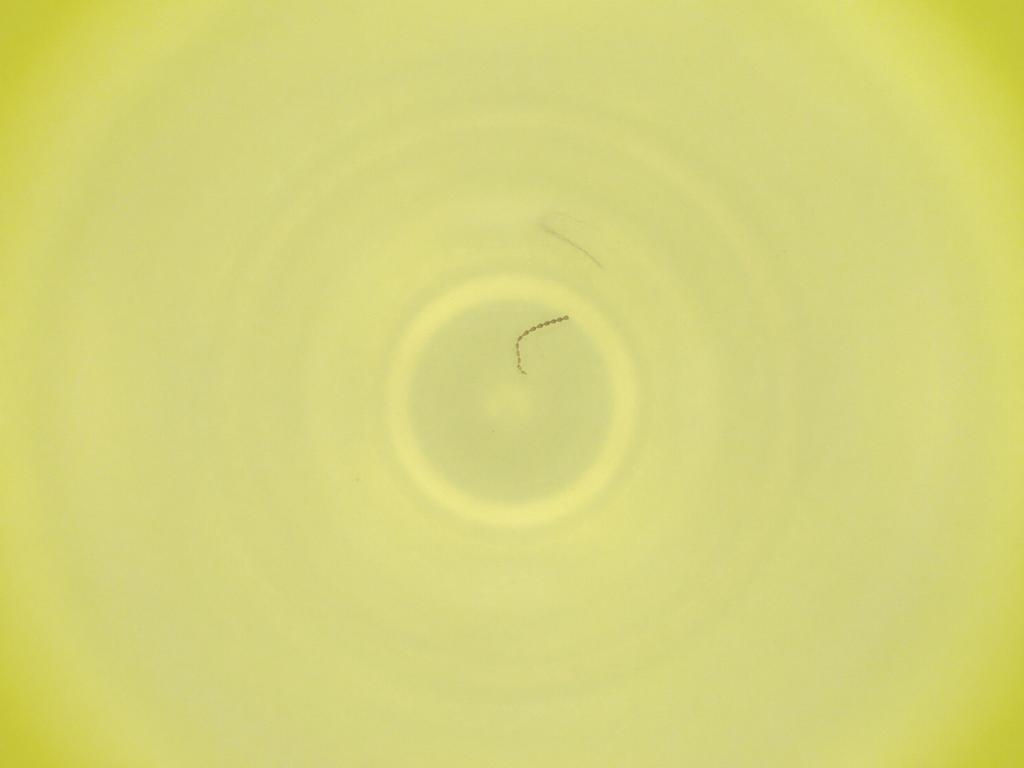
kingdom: Animalia
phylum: Arthropoda
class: Insecta
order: Diptera
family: Cecidomyiidae
